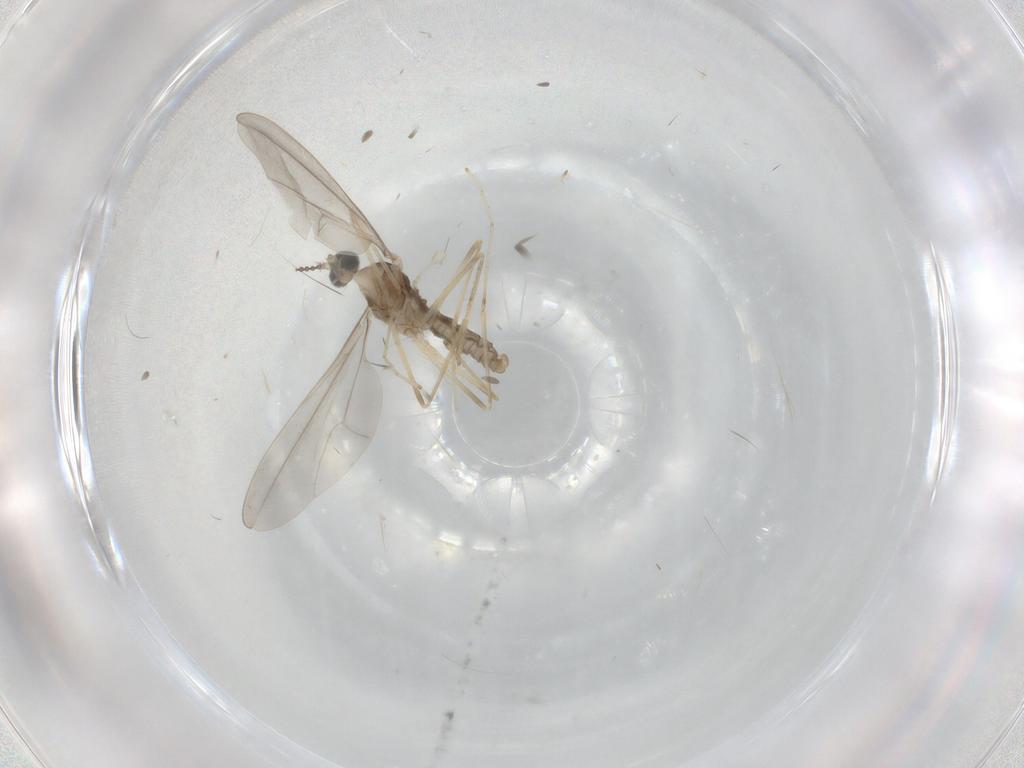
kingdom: Animalia
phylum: Arthropoda
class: Insecta
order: Diptera
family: Cecidomyiidae
